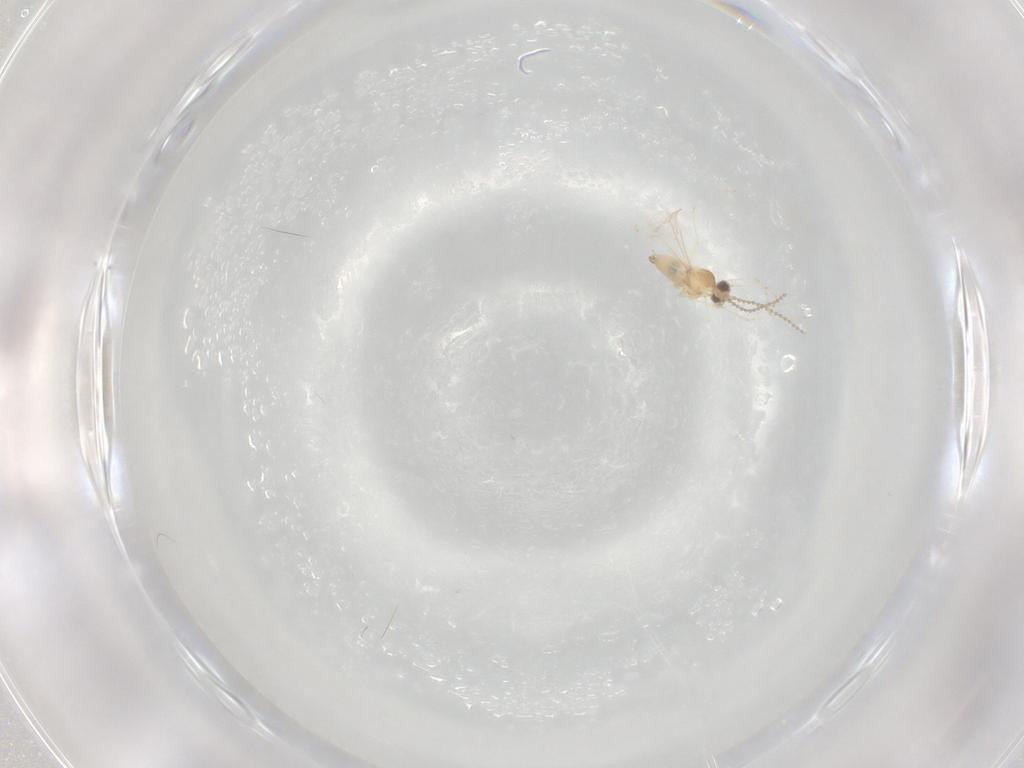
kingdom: Animalia
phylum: Arthropoda
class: Insecta
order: Diptera
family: Cecidomyiidae
